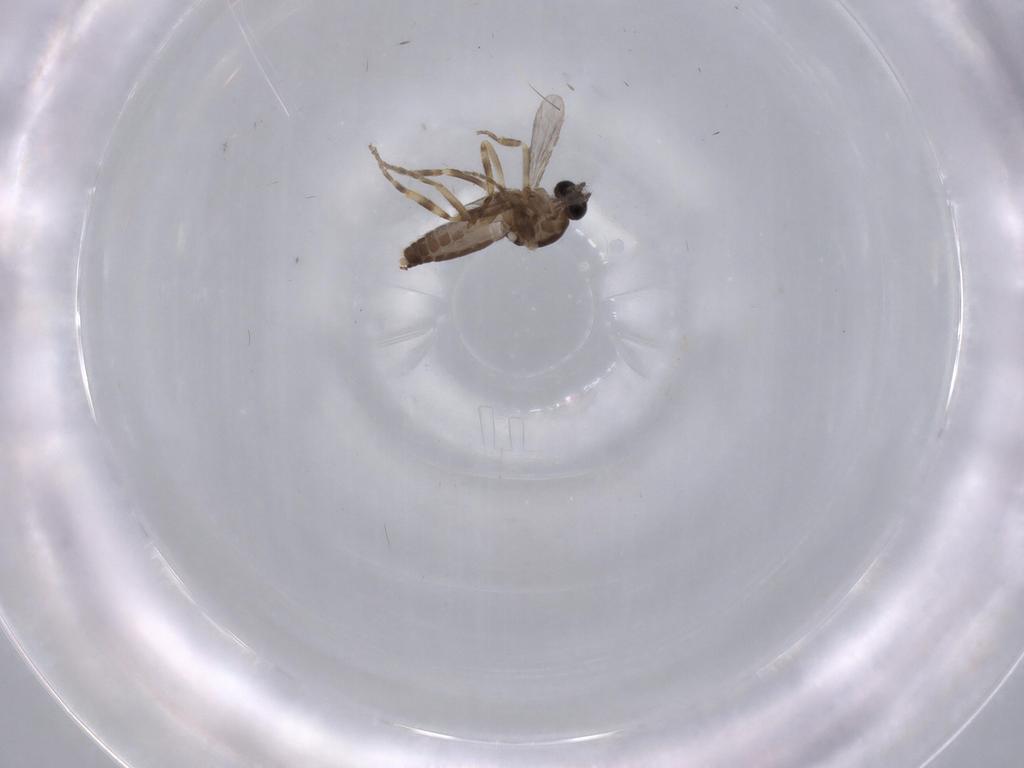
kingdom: Animalia
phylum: Arthropoda
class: Insecta
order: Diptera
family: Ceratopogonidae
